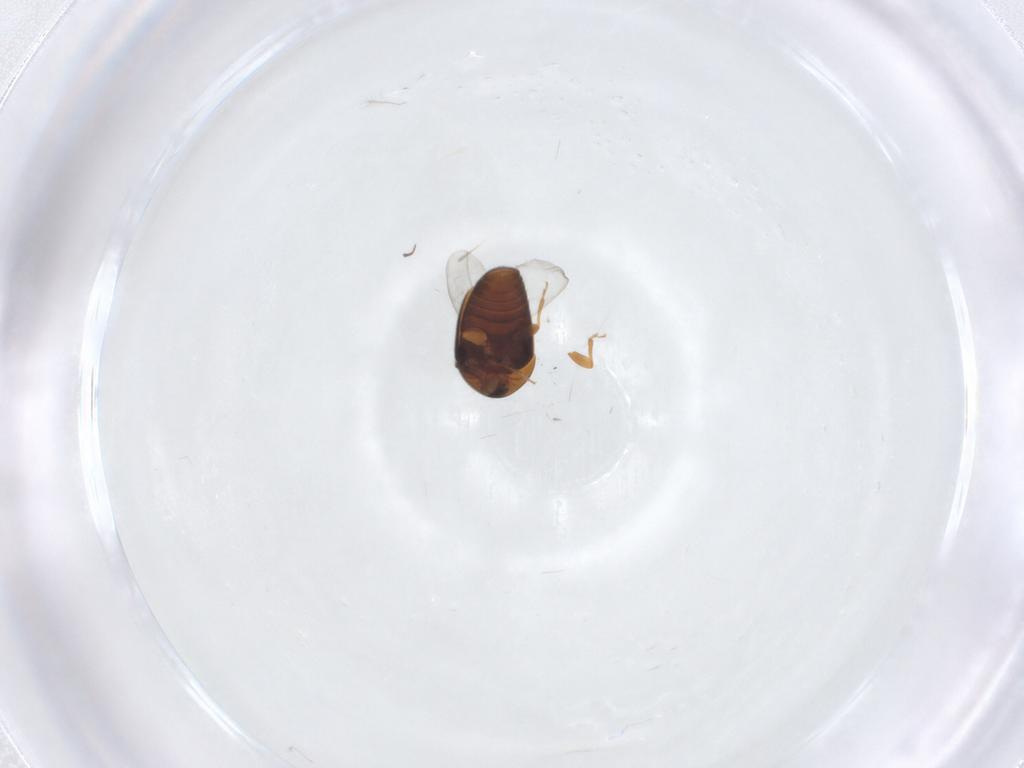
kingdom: Animalia
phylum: Arthropoda
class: Insecta
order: Coleoptera
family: Corylophidae
